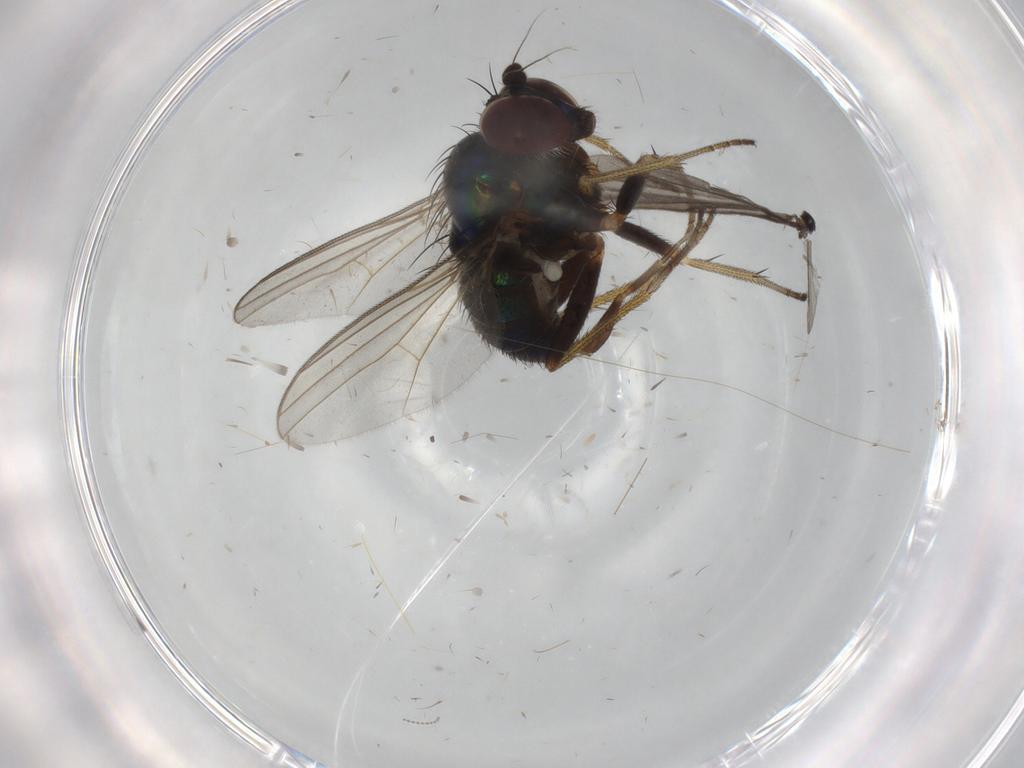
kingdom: Animalia
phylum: Arthropoda
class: Insecta
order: Diptera
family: Dolichopodidae
